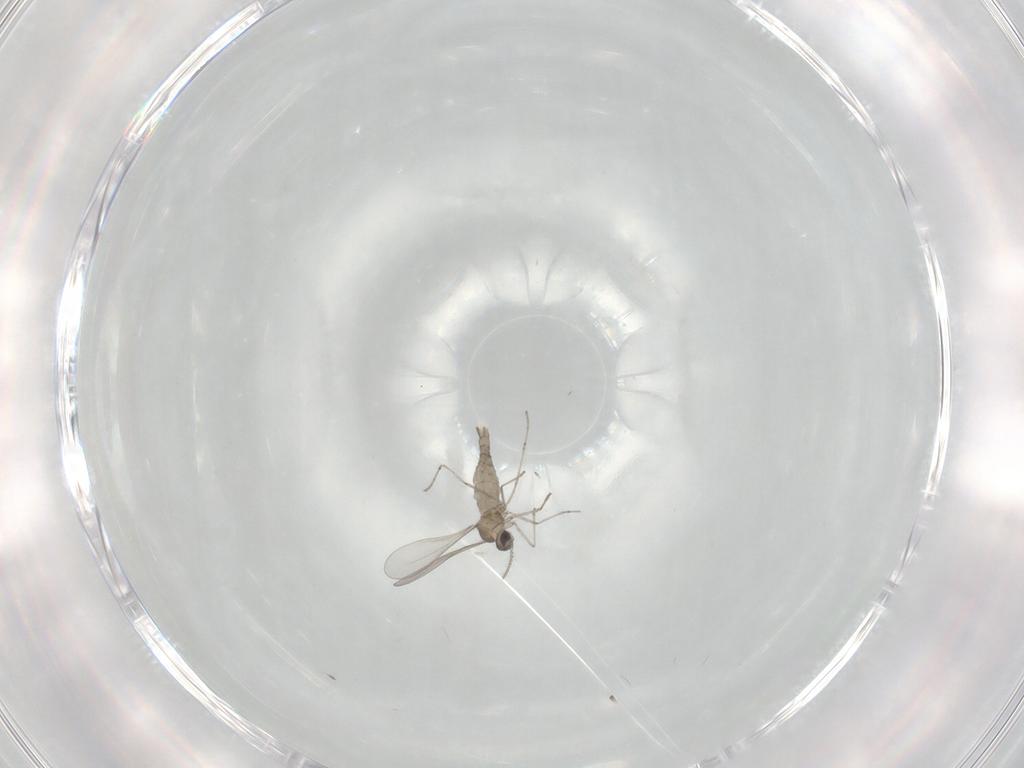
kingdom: Animalia
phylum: Arthropoda
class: Insecta
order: Diptera
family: Cecidomyiidae
